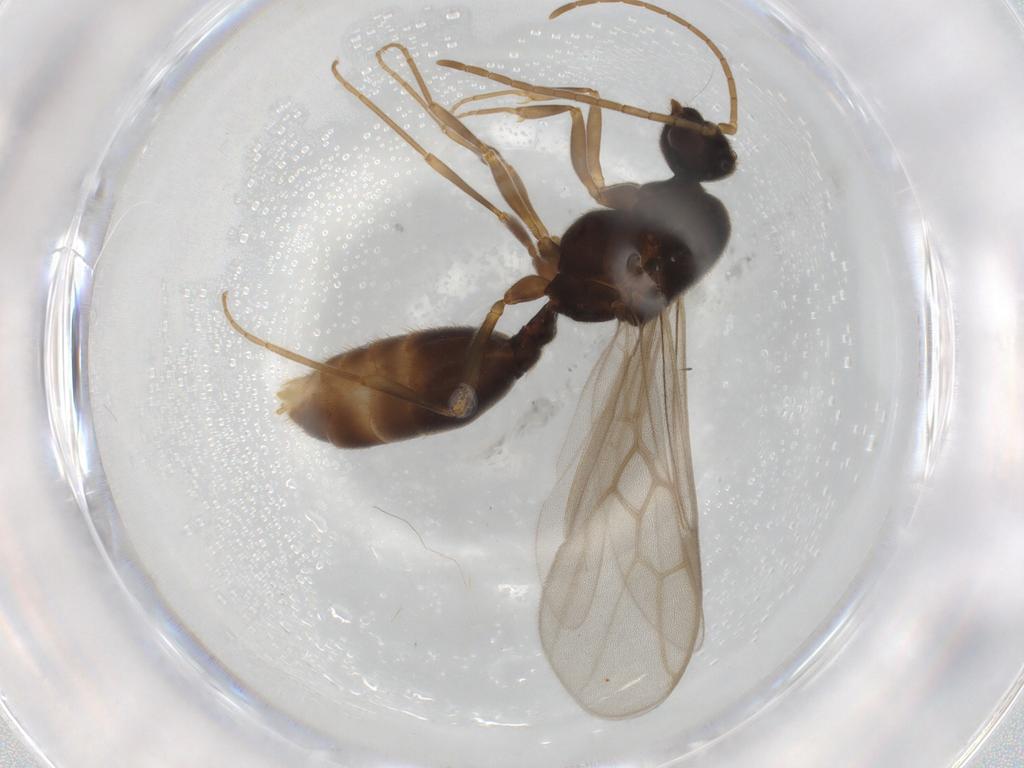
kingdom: Animalia
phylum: Arthropoda
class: Insecta
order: Hymenoptera
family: Formicidae
